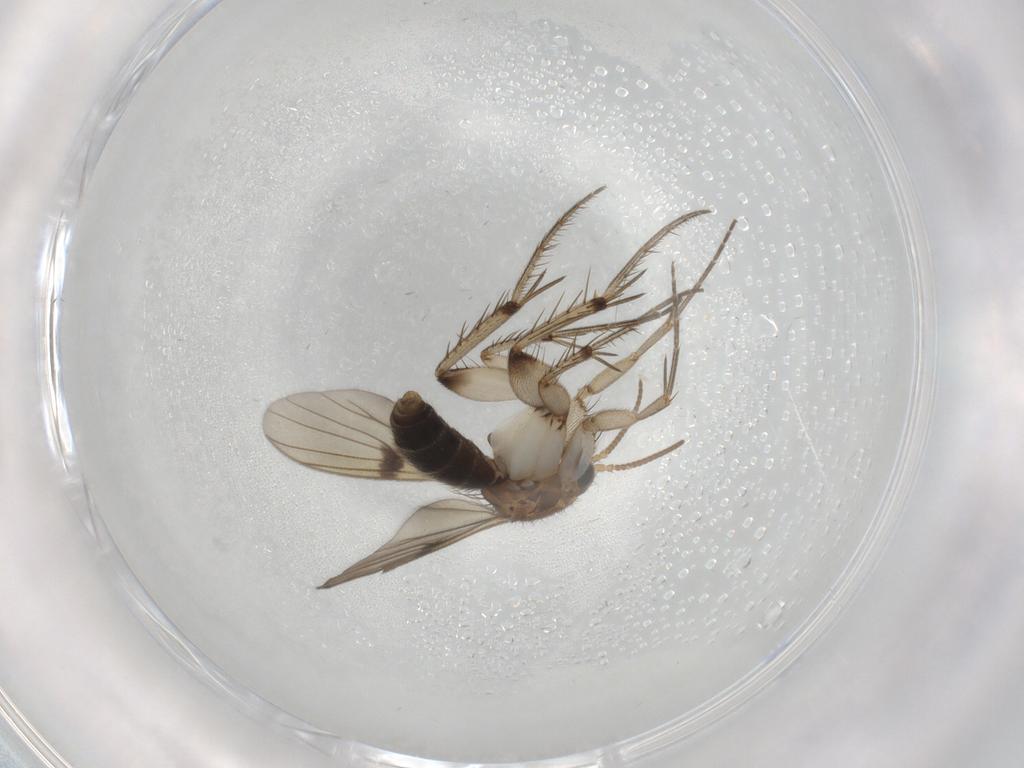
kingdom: Animalia
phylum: Arthropoda
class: Insecta
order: Diptera
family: Mycetophilidae
